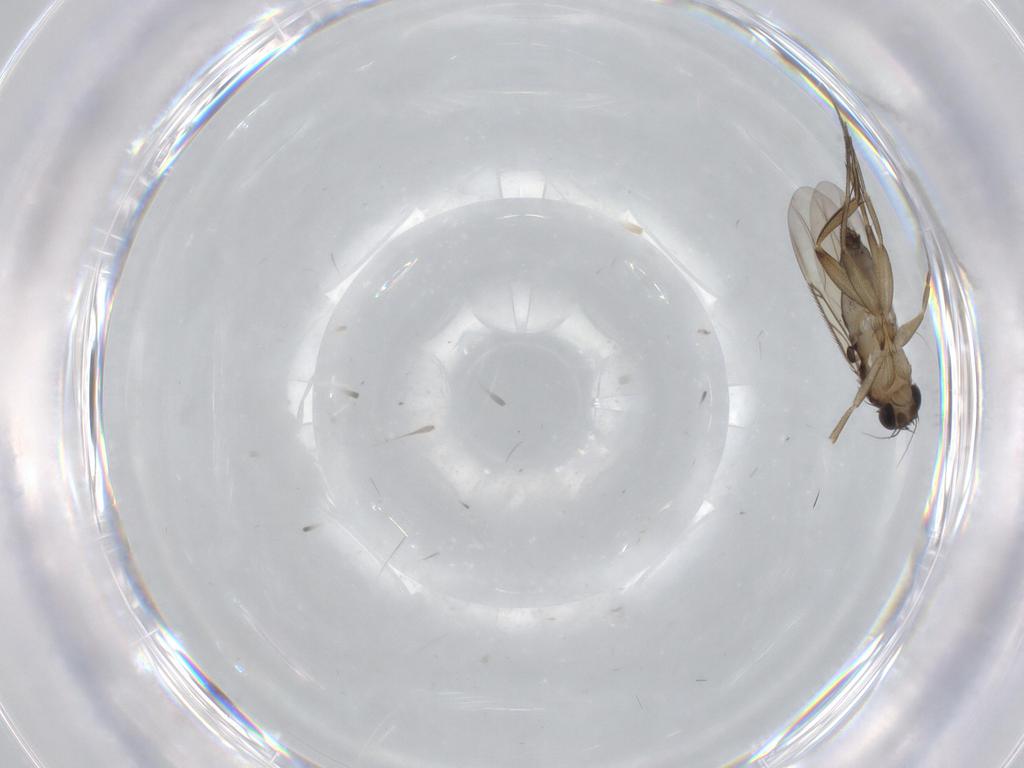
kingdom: Animalia
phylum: Arthropoda
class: Insecta
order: Diptera
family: Phoridae
